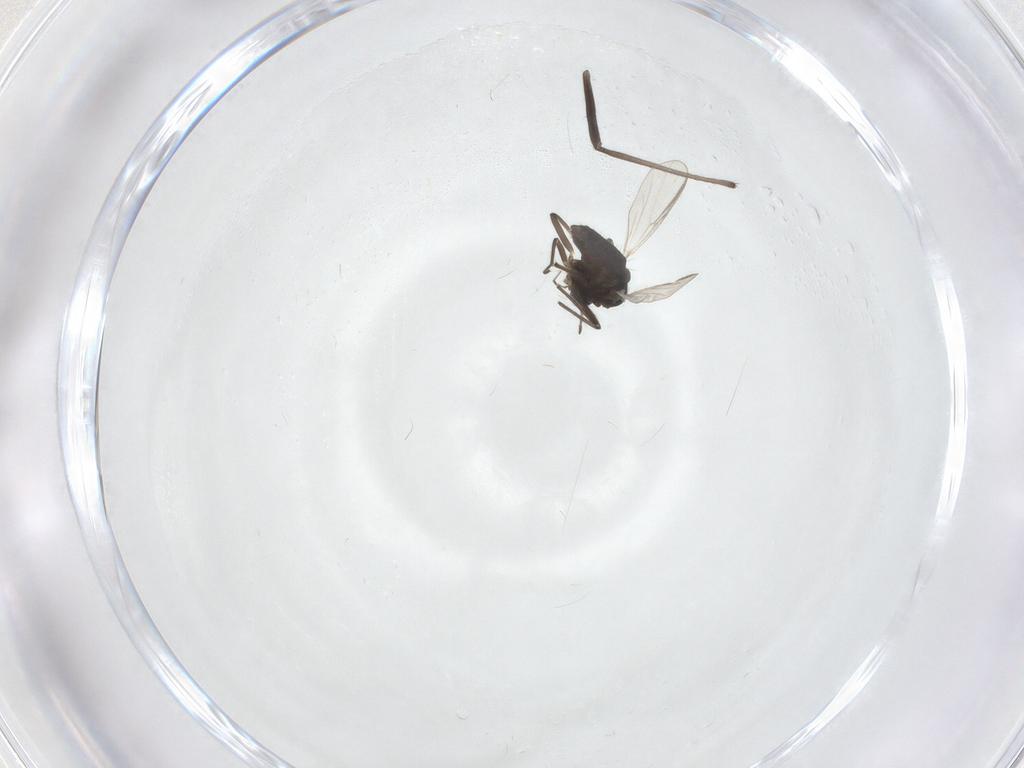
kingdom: Animalia
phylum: Arthropoda
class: Insecta
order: Diptera
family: Chironomidae
